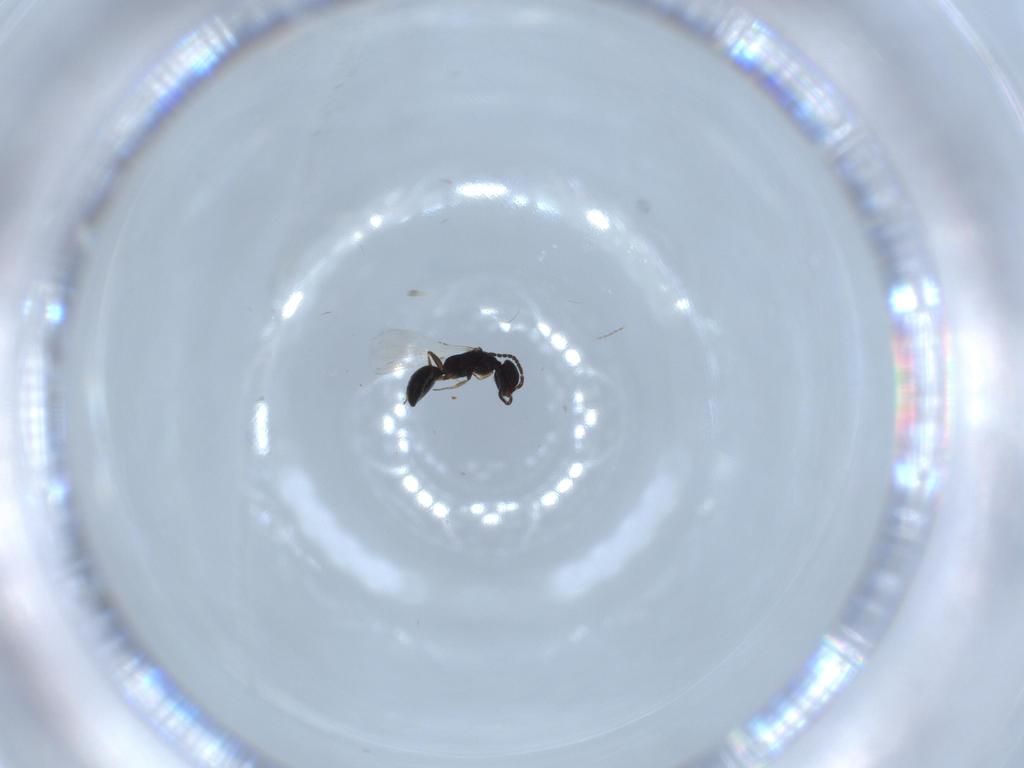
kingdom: Animalia
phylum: Arthropoda
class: Insecta
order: Hymenoptera
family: Bethylidae
